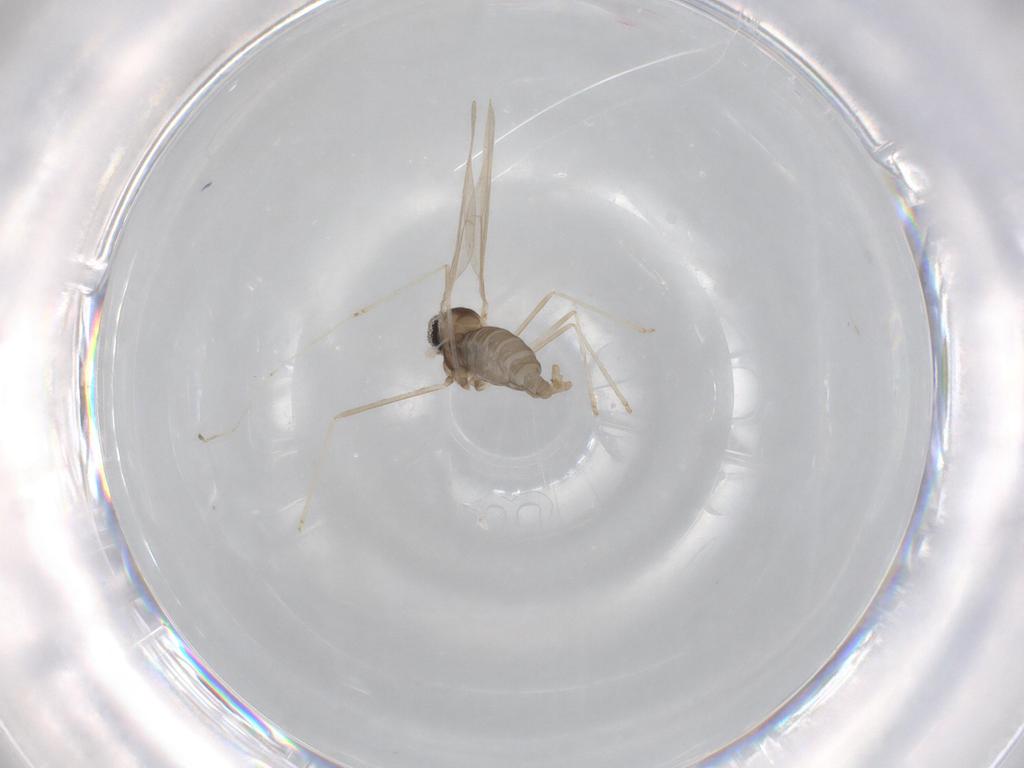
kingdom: Animalia
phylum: Arthropoda
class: Insecta
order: Diptera
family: Cecidomyiidae
